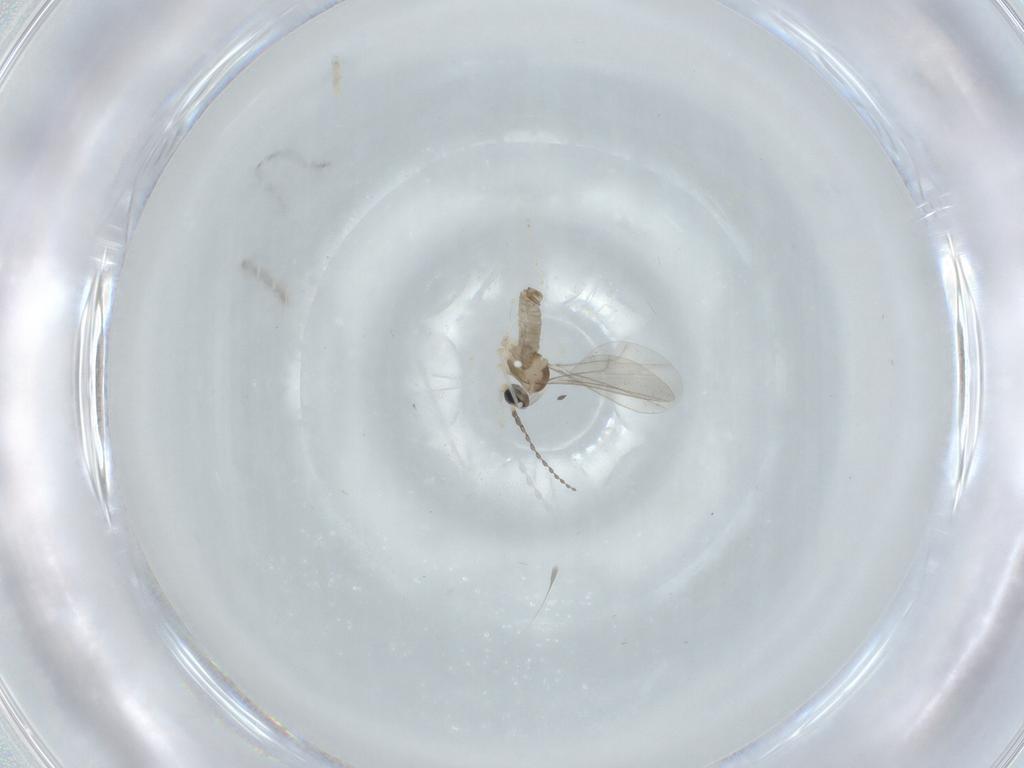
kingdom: Animalia
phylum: Arthropoda
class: Insecta
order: Diptera
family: Cecidomyiidae
